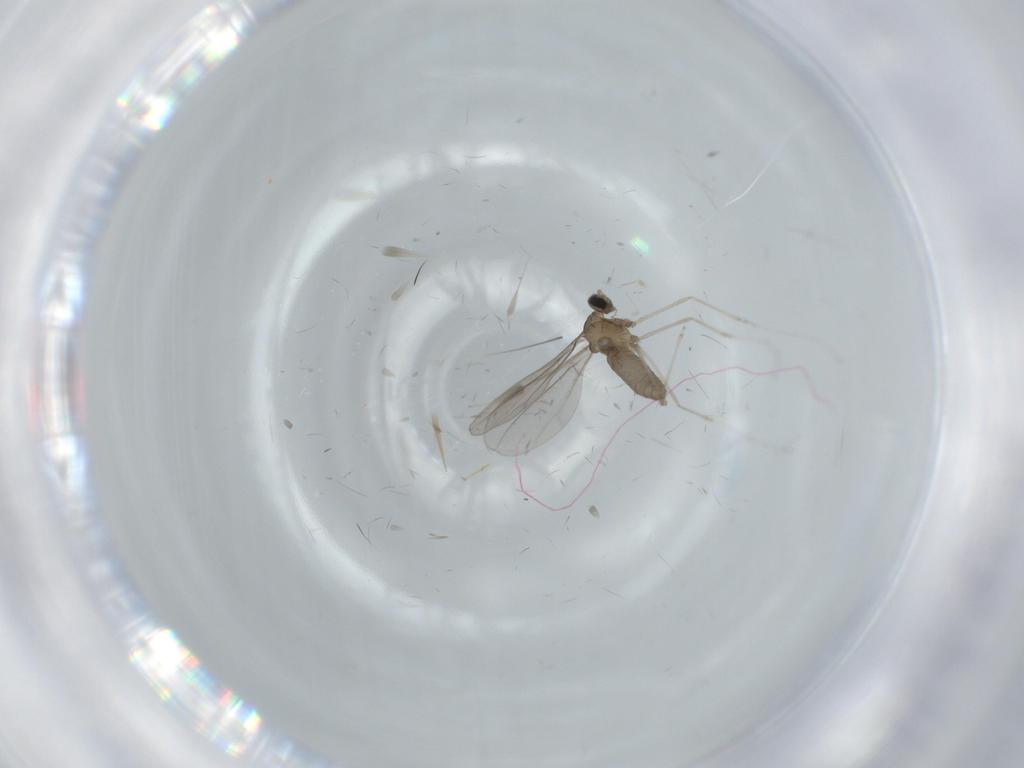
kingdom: Animalia
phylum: Arthropoda
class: Insecta
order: Diptera
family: Cecidomyiidae
